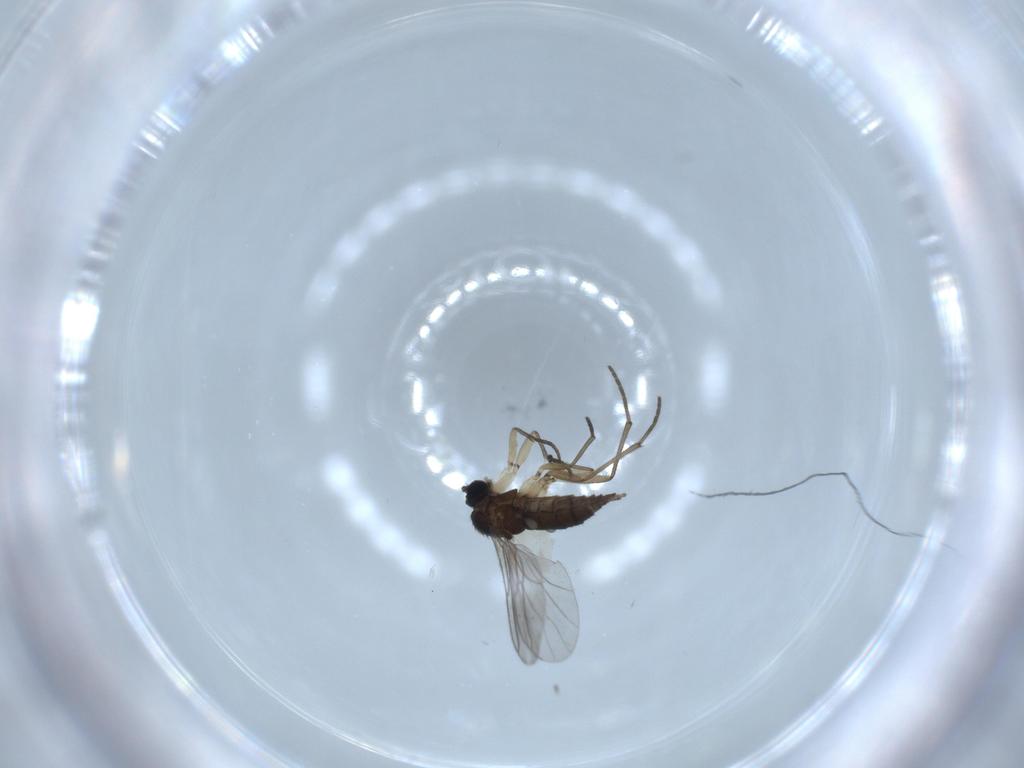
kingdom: Animalia
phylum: Arthropoda
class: Insecta
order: Diptera
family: Sciaridae
